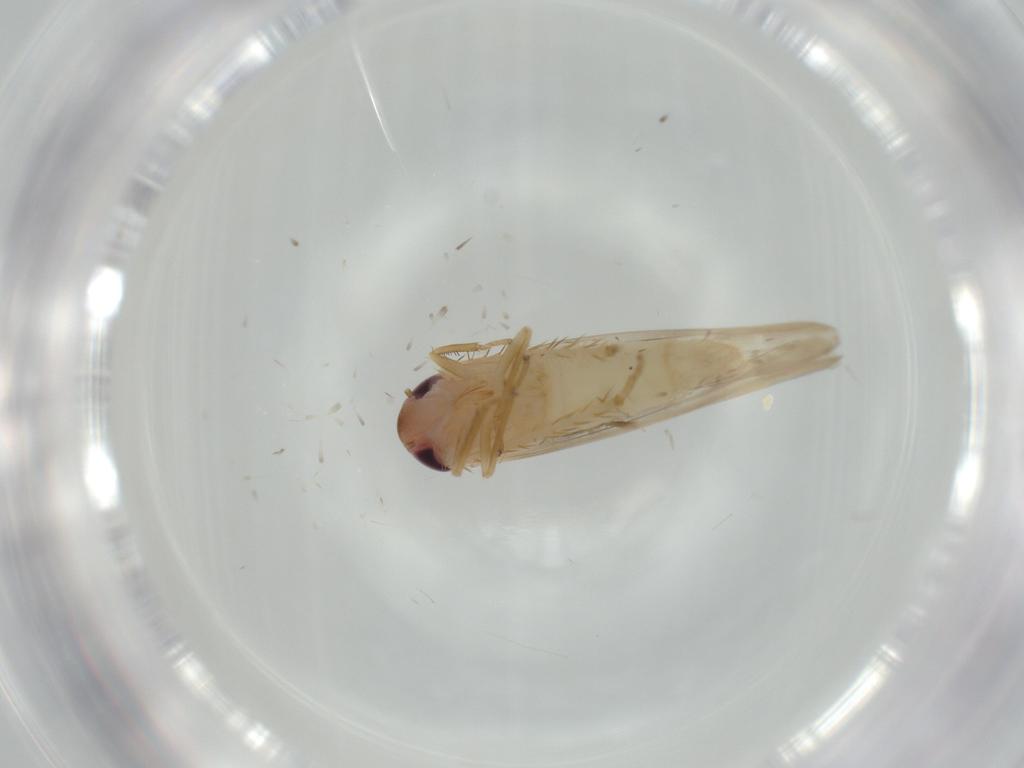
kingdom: Animalia
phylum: Arthropoda
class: Insecta
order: Hemiptera
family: Cicadellidae
